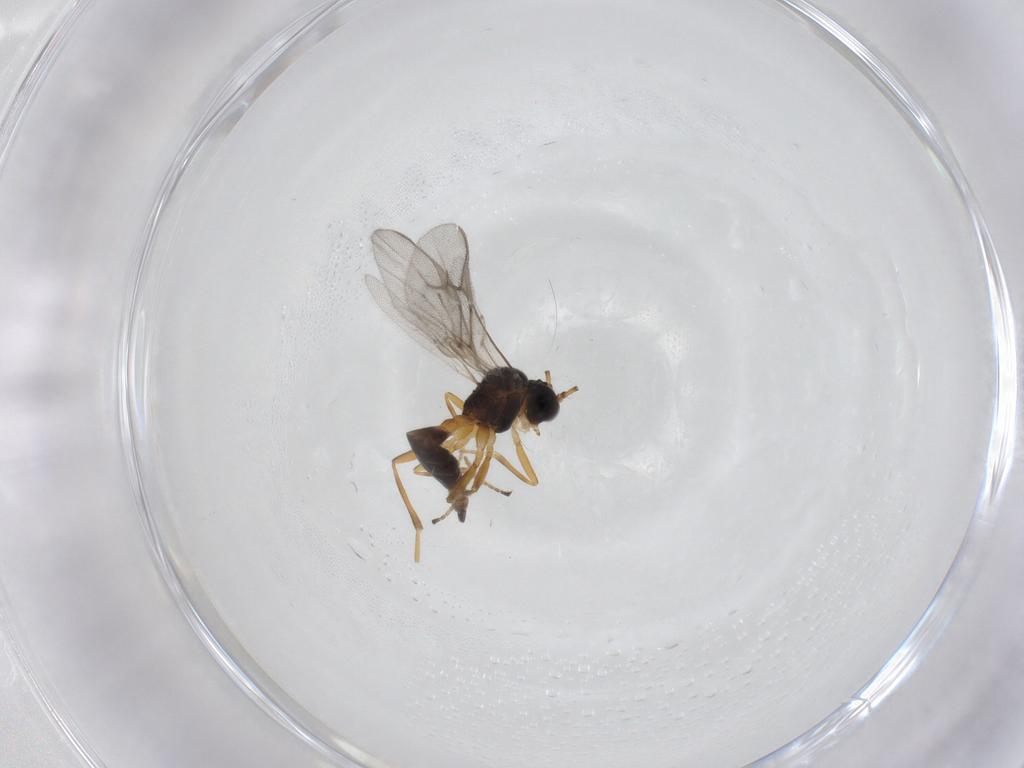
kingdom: Animalia
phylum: Arthropoda
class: Insecta
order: Hymenoptera
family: Braconidae
